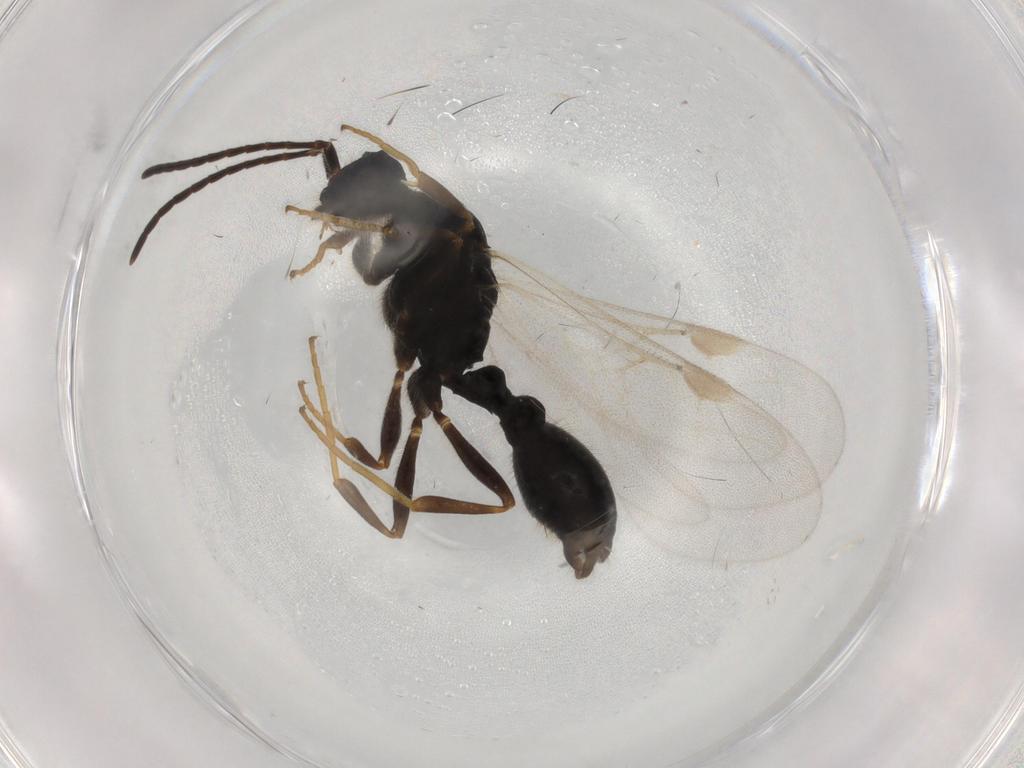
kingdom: Animalia
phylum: Arthropoda
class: Insecta
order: Hymenoptera
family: Formicidae
